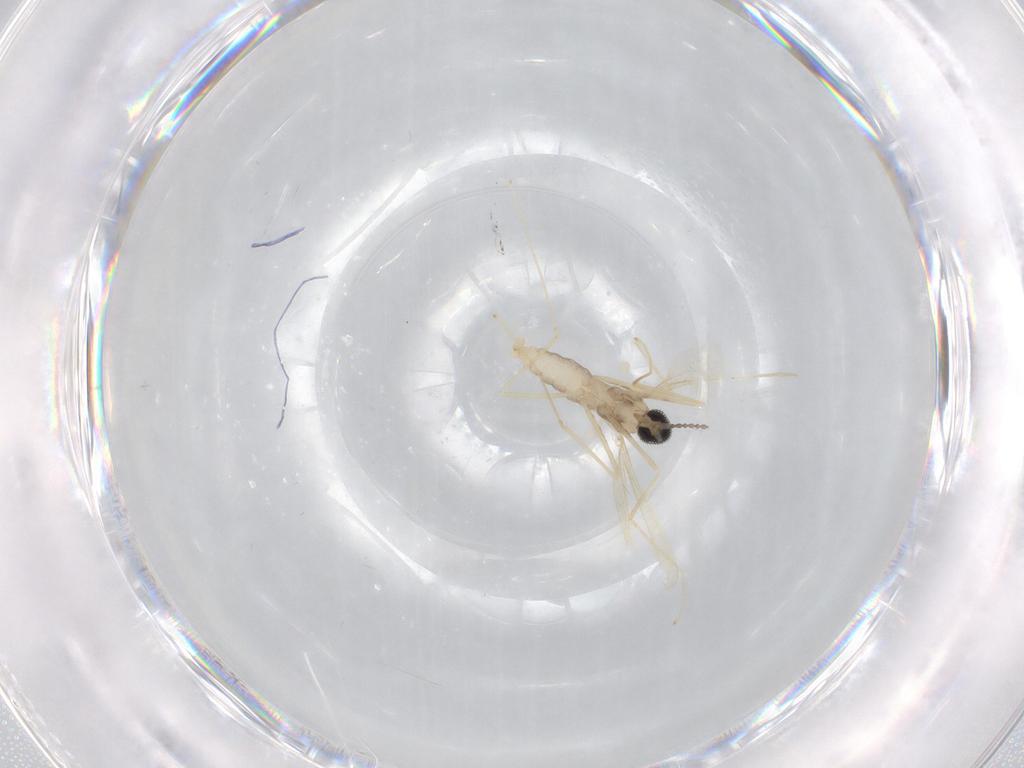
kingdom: Animalia
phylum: Arthropoda
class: Insecta
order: Diptera
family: Cecidomyiidae
